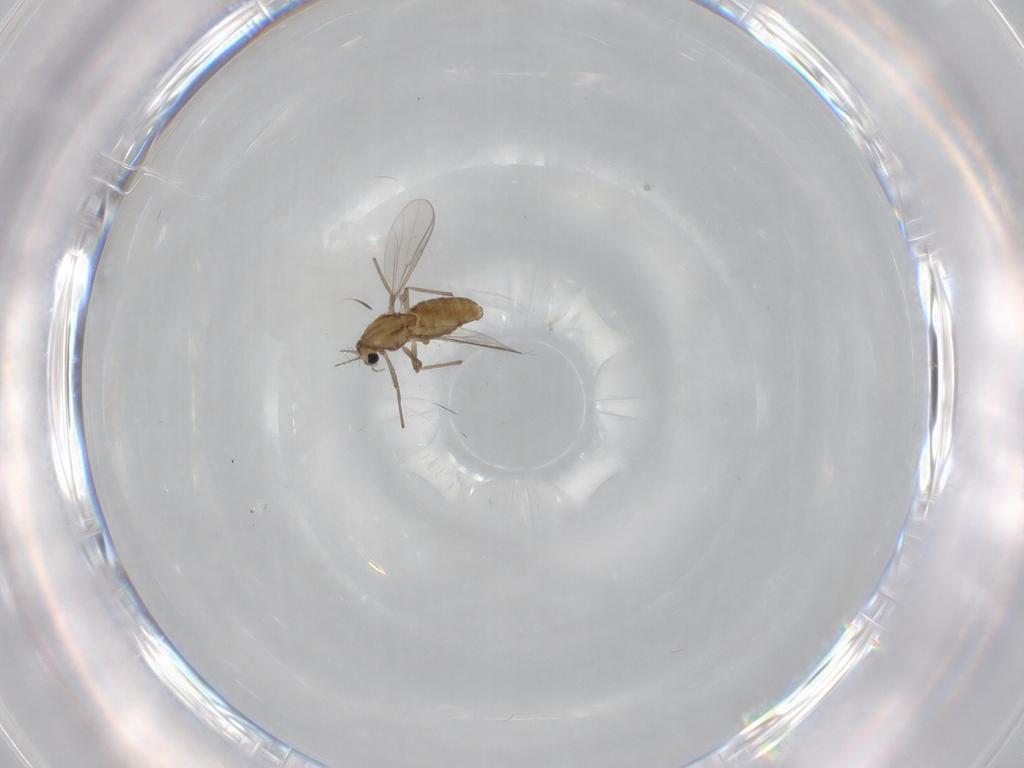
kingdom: Animalia
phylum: Arthropoda
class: Insecta
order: Diptera
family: Chironomidae
